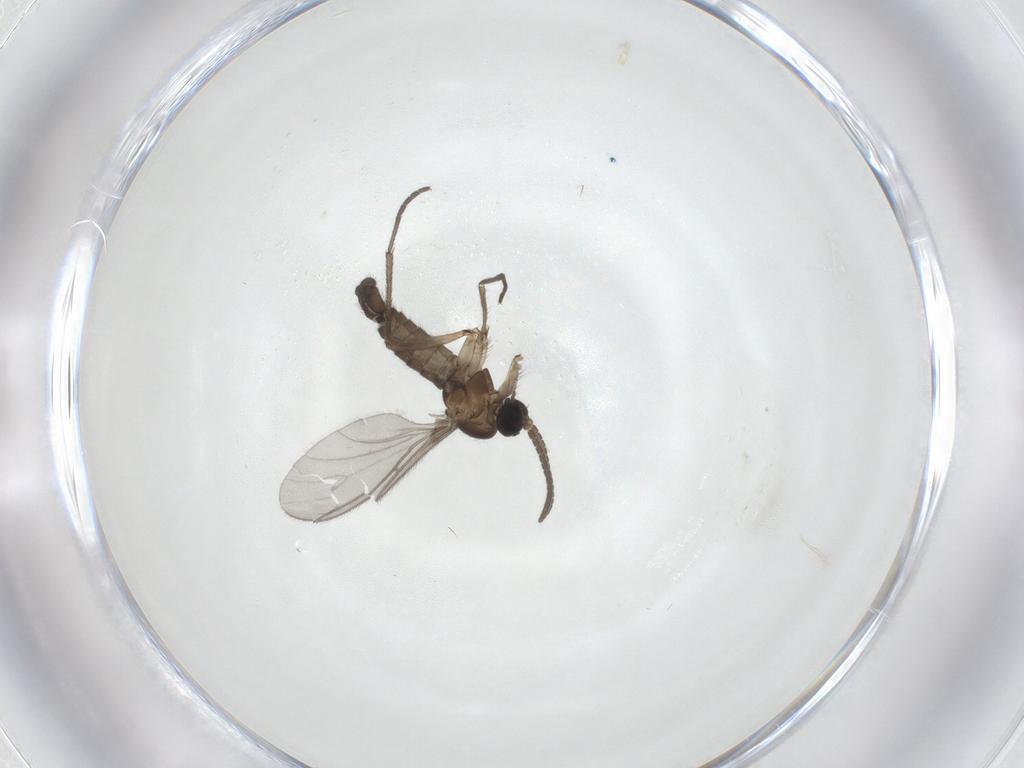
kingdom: Animalia
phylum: Arthropoda
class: Insecta
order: Diptera
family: Sciaridae
